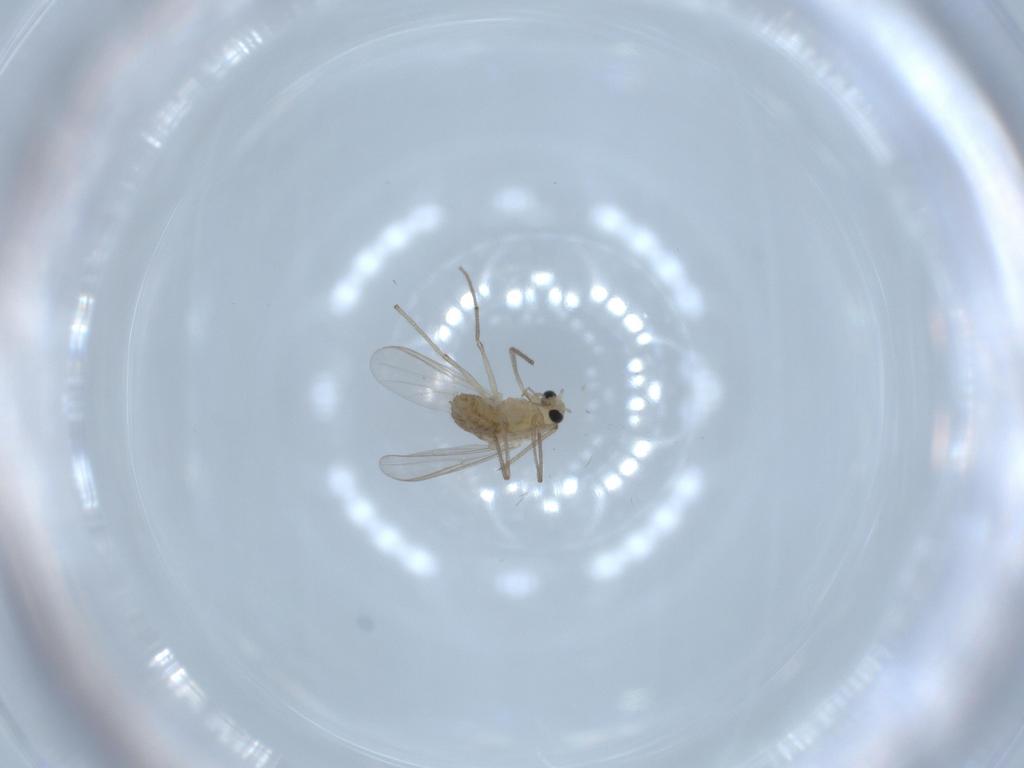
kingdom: Animalia
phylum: Arthropoda
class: Insecta
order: Diptera
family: Chironomidae
